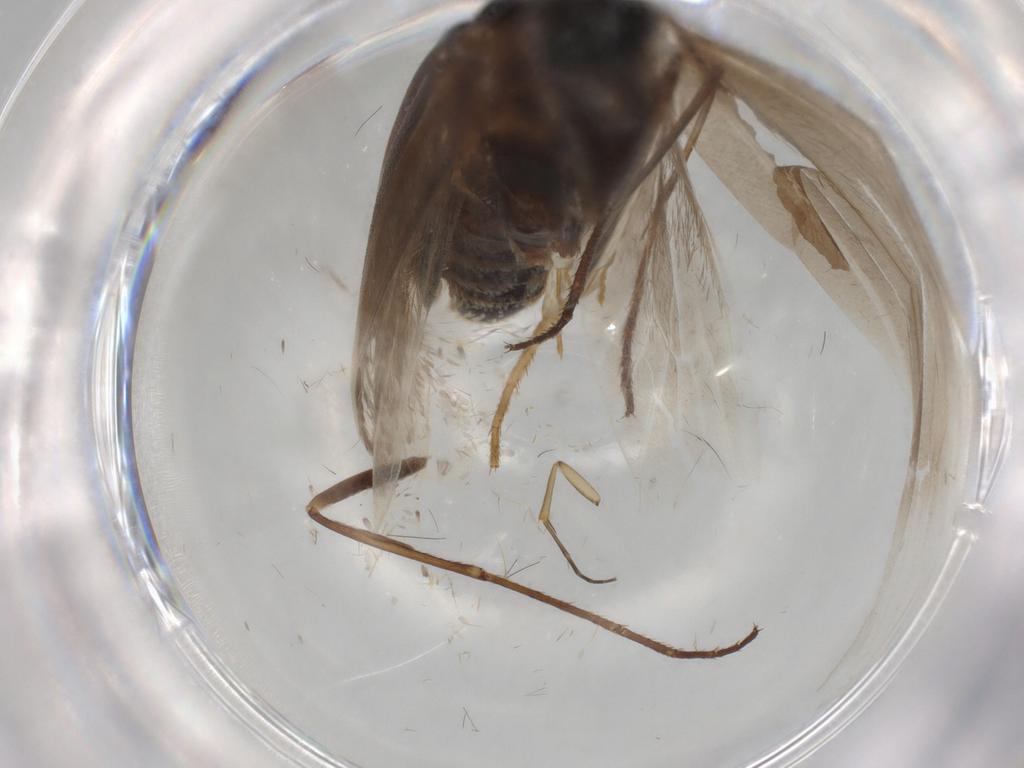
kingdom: Animalia
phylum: Arthropoda
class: Insecta
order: Lepidoptera
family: Adelidae
